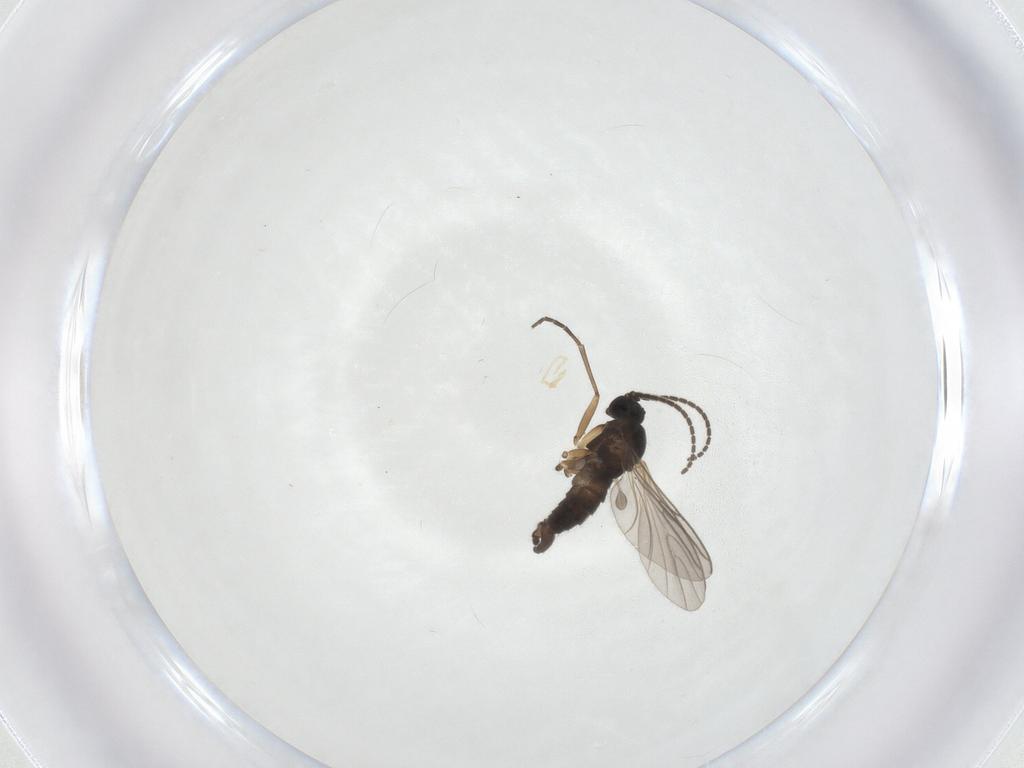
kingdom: Animalia
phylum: Arthropoda
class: Insecta
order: Diptera
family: Sciaridae
